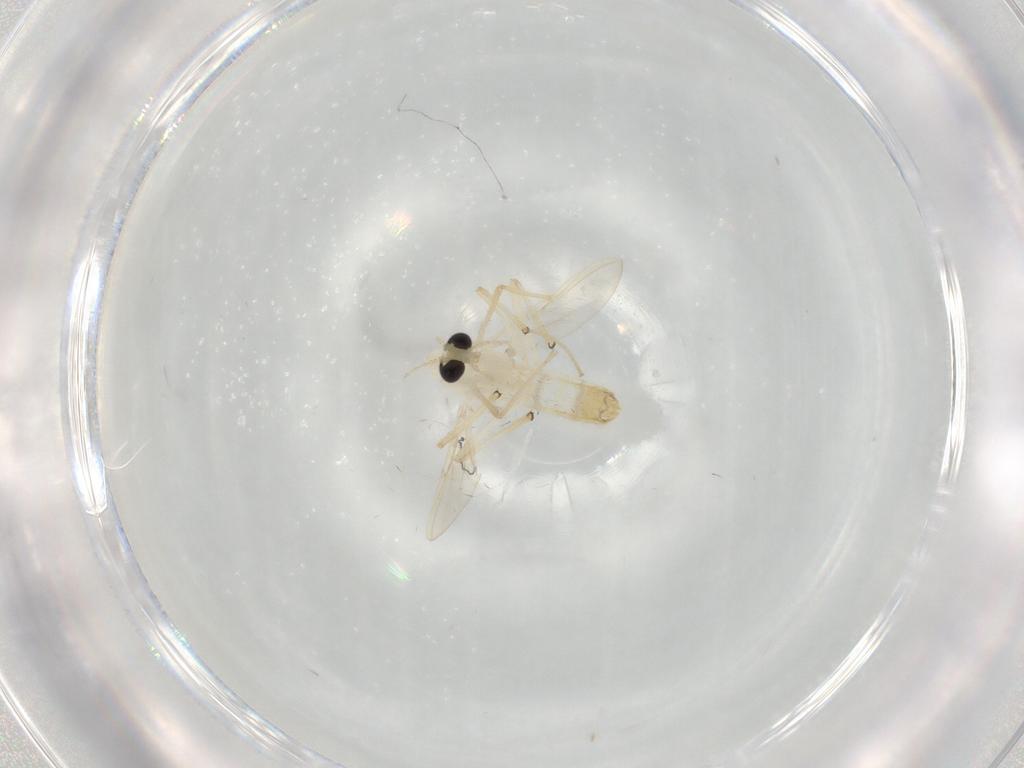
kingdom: Animalia
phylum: Arthropoda
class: Insecta
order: Diptera
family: Chironomidae
